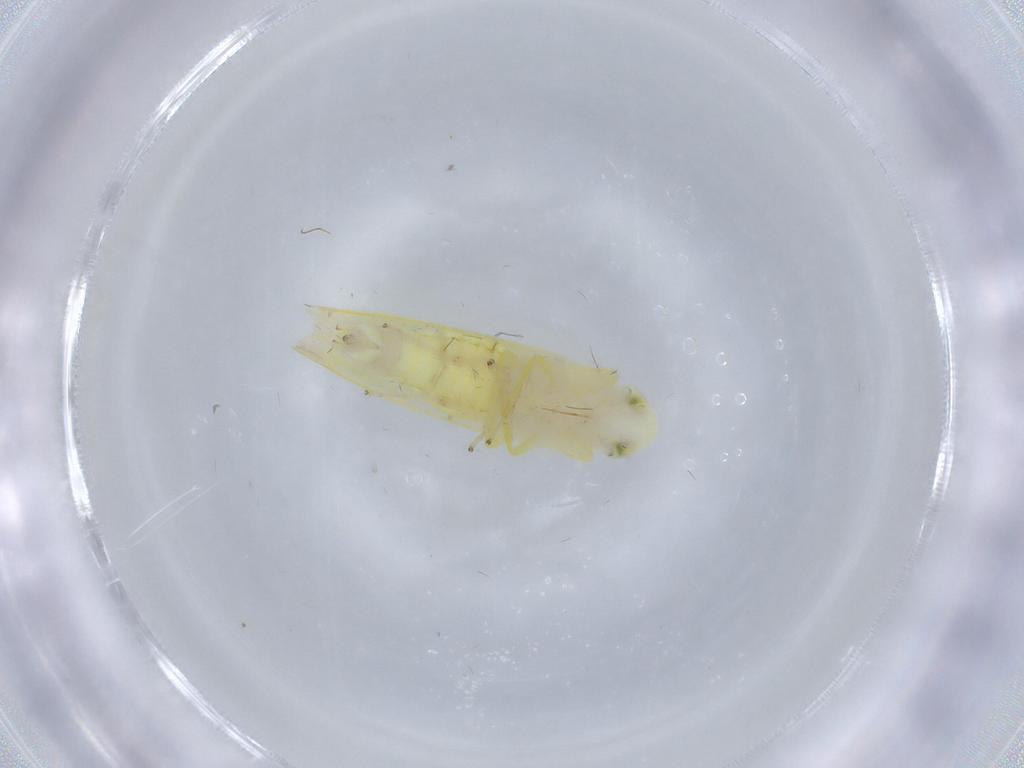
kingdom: Animalia
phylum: Arthropoda
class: Insecta
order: Hemiptera
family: Cicadellidae
